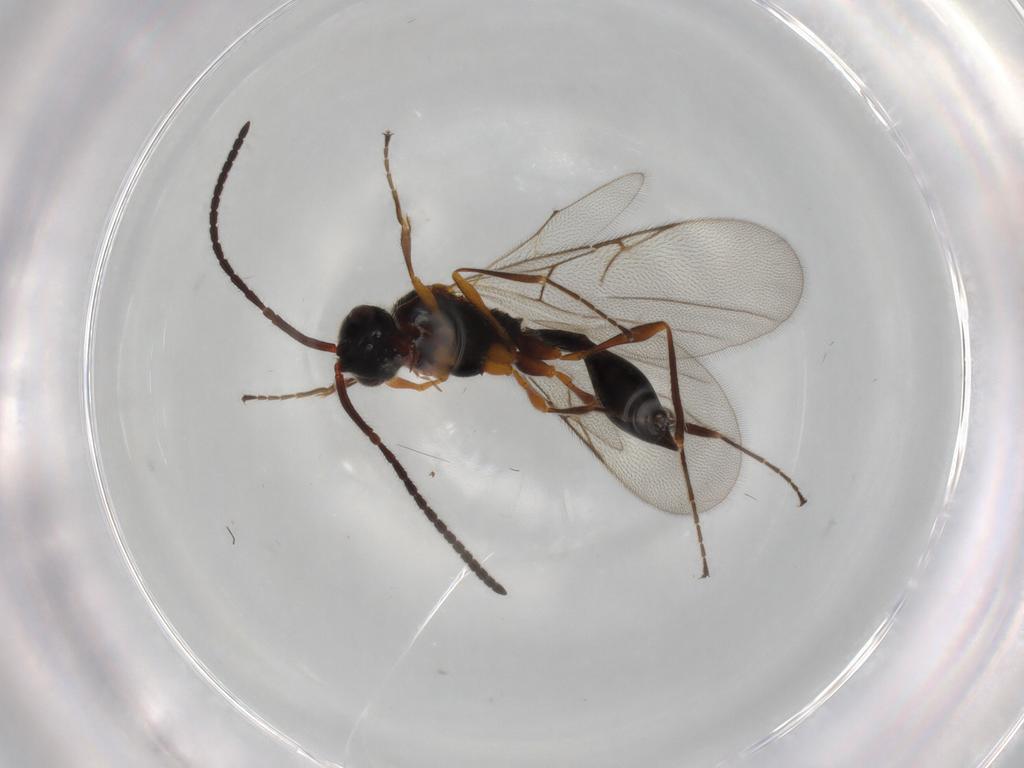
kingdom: Animalia
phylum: Arthropoda
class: Insecta
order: Hymenoptera
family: Diapriidae
